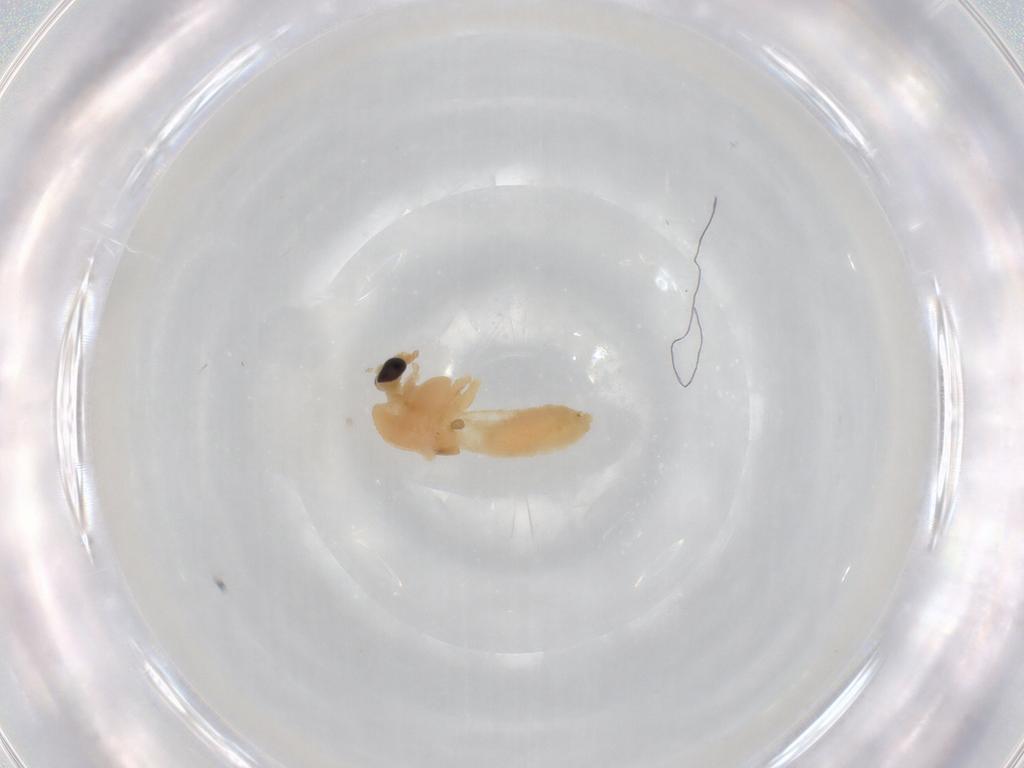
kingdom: Animalia
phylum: Arthropoda
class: Insecta
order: Diptera
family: Chironomidae
